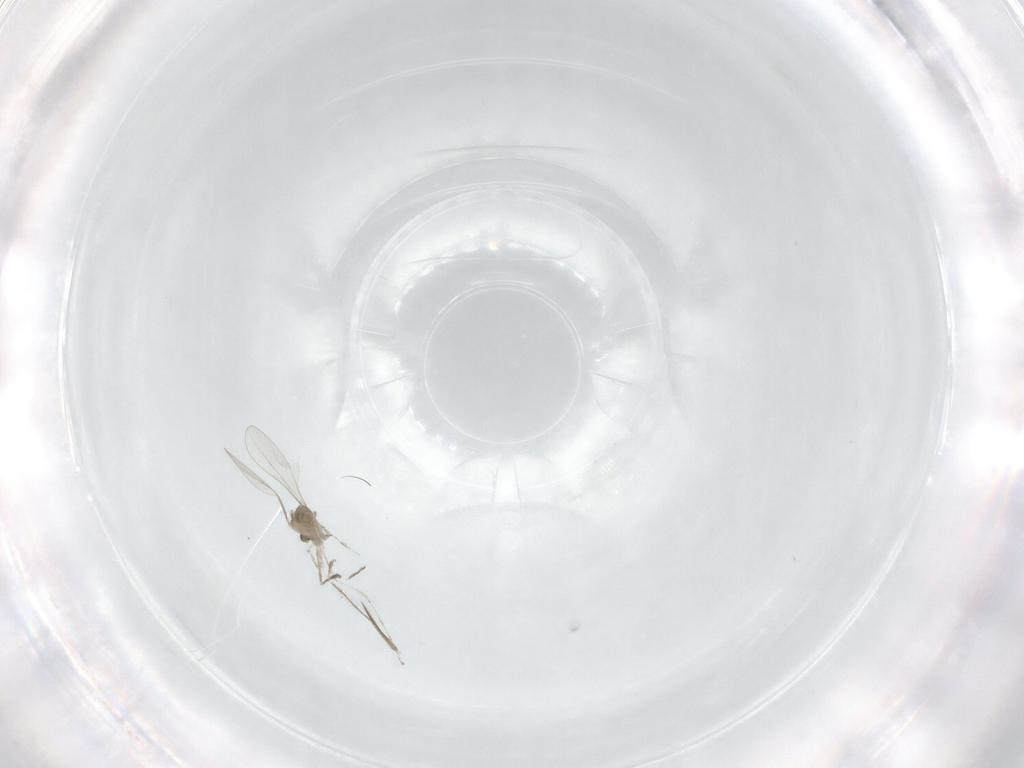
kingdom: Animalia
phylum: Arthropoda
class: Insecta
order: Diptera
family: Cecidomyiidae
